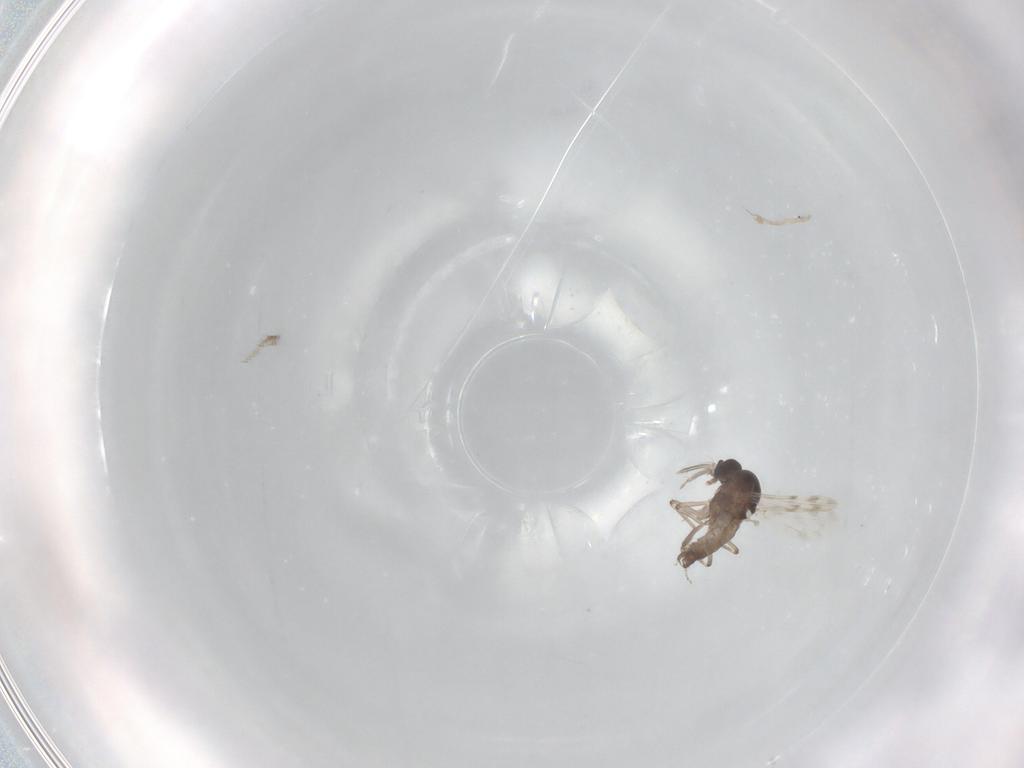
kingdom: Animalia
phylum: Arthropoda
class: Insecta
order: Diptera
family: Ceratopogonidae
